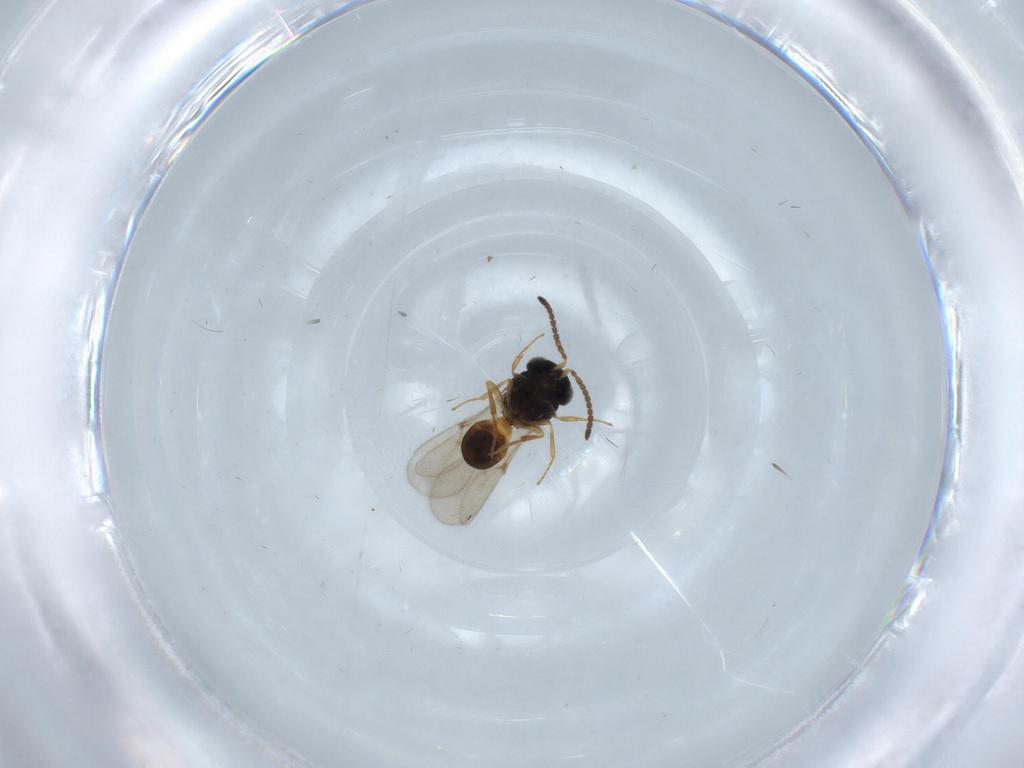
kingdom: Animalia
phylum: Arthropoda
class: Insecta
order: Hymenoptera
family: Scelionidae
